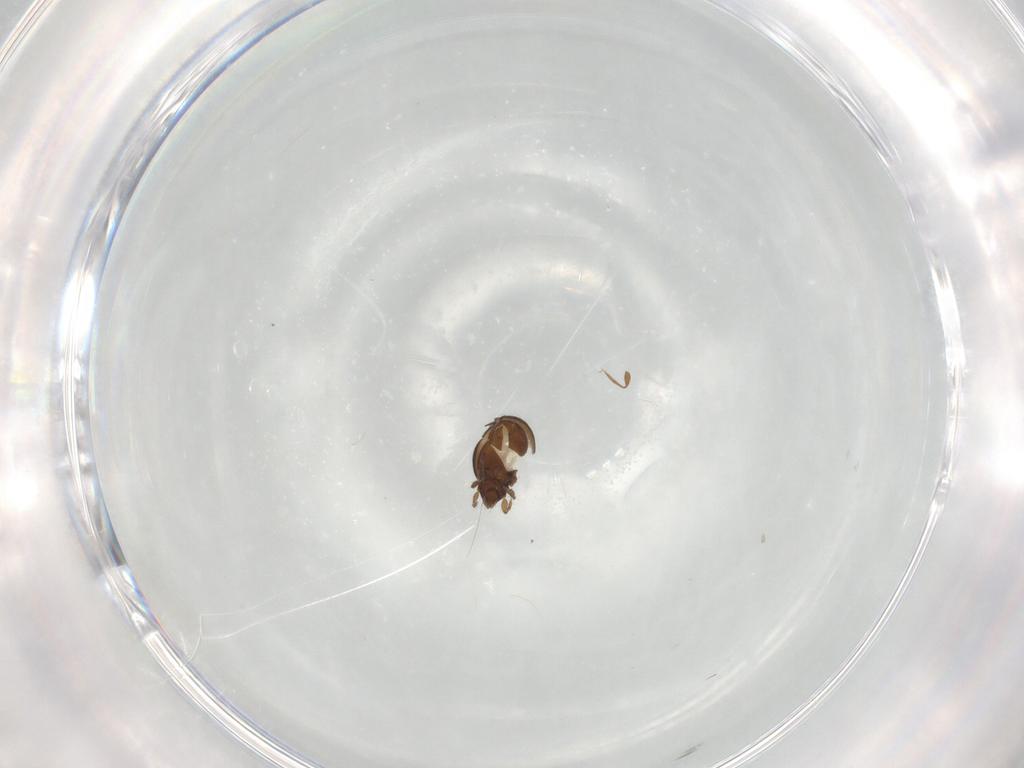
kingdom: Animalia
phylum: Arthropoda
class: Arachnida
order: Sarcoptiformes
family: Oribatulidae
